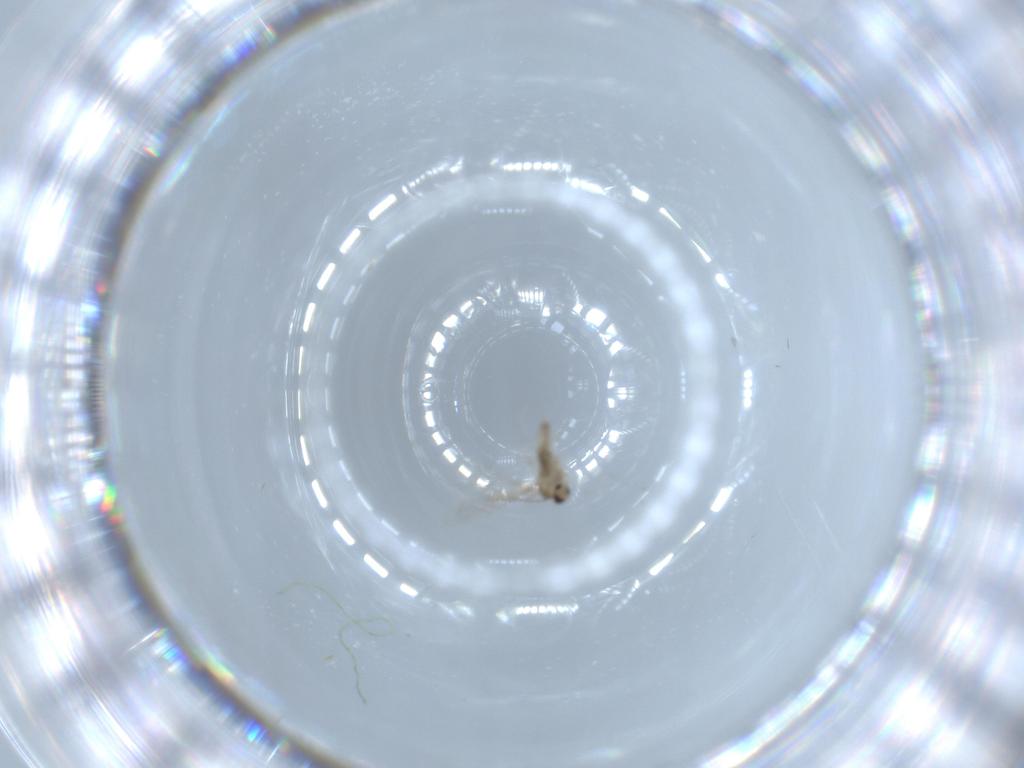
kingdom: Animalia
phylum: Arthropoda
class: Insecta
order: Diptera
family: Cecidomyiidae
